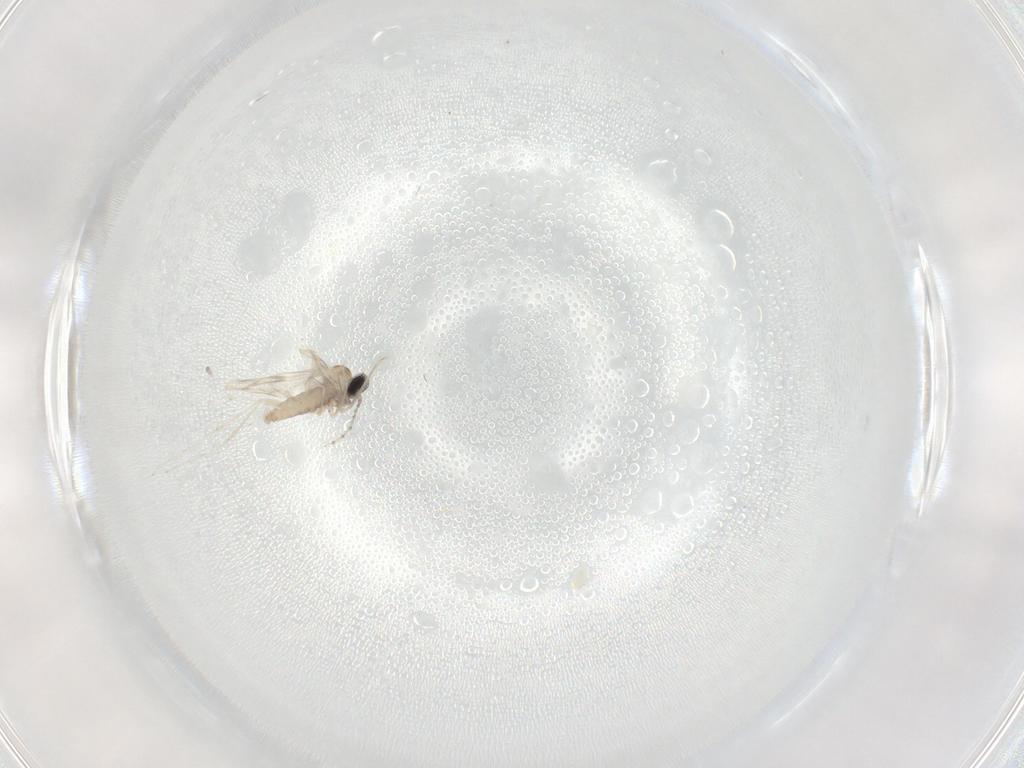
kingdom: Animalia
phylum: Arthropoda
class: Insecta
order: Diptera
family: Cecidomyiidae
